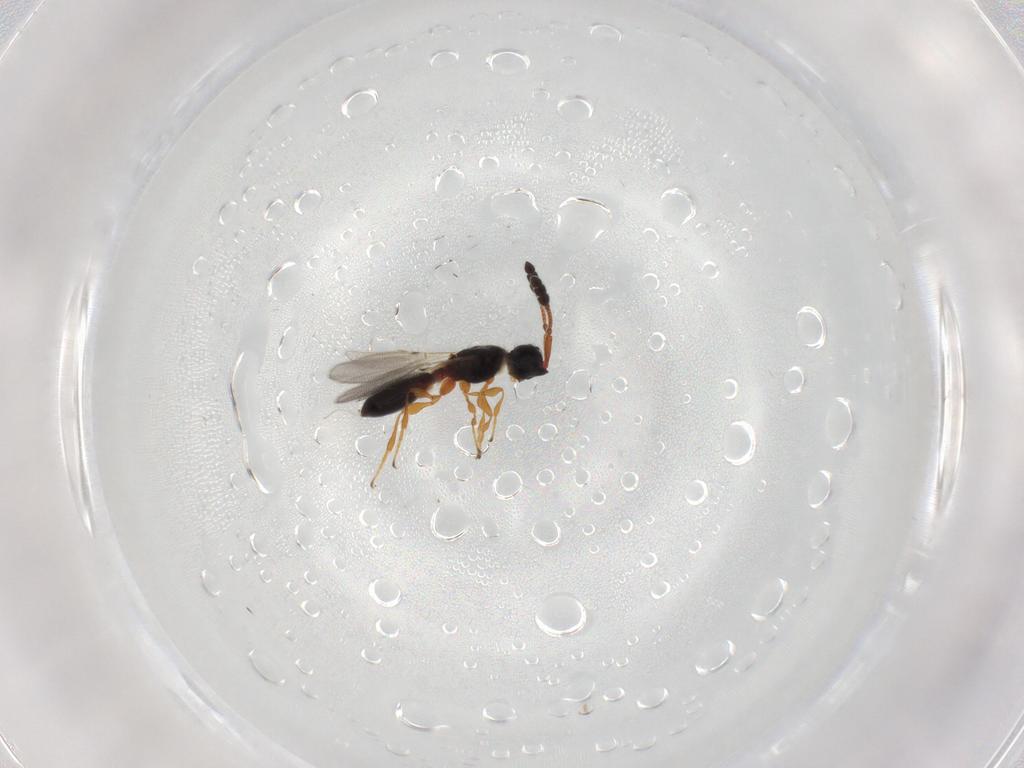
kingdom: Animalia
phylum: Arthropoda
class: Insecta
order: Hymenoptera
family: Diapriidae
